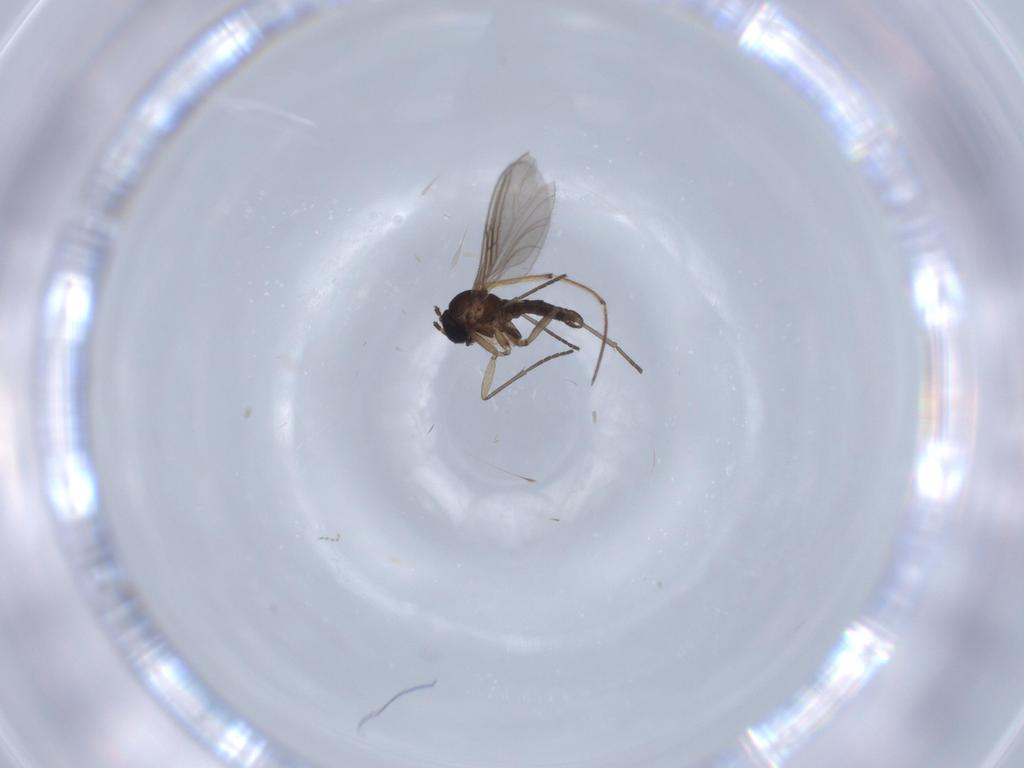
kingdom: Animalia
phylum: Arthropoda
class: Insecta
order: Diptera
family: Sciaridae
